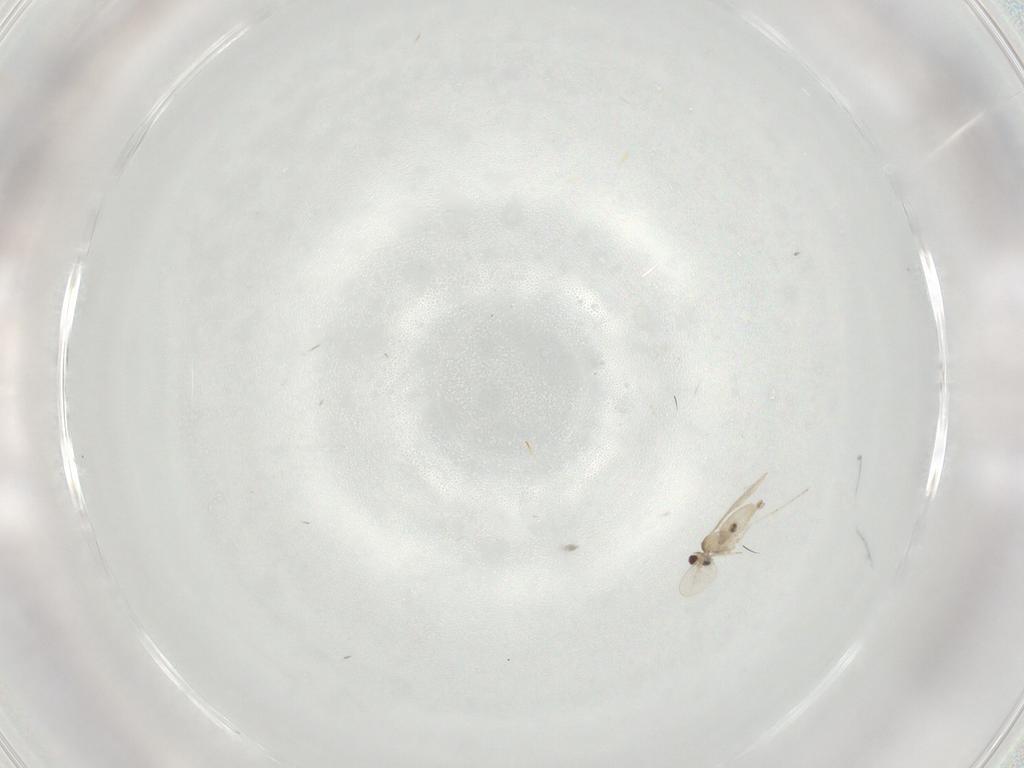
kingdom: Animalia
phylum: Arthropoda
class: Insecta
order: Diptera
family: Cecidomyiidae
